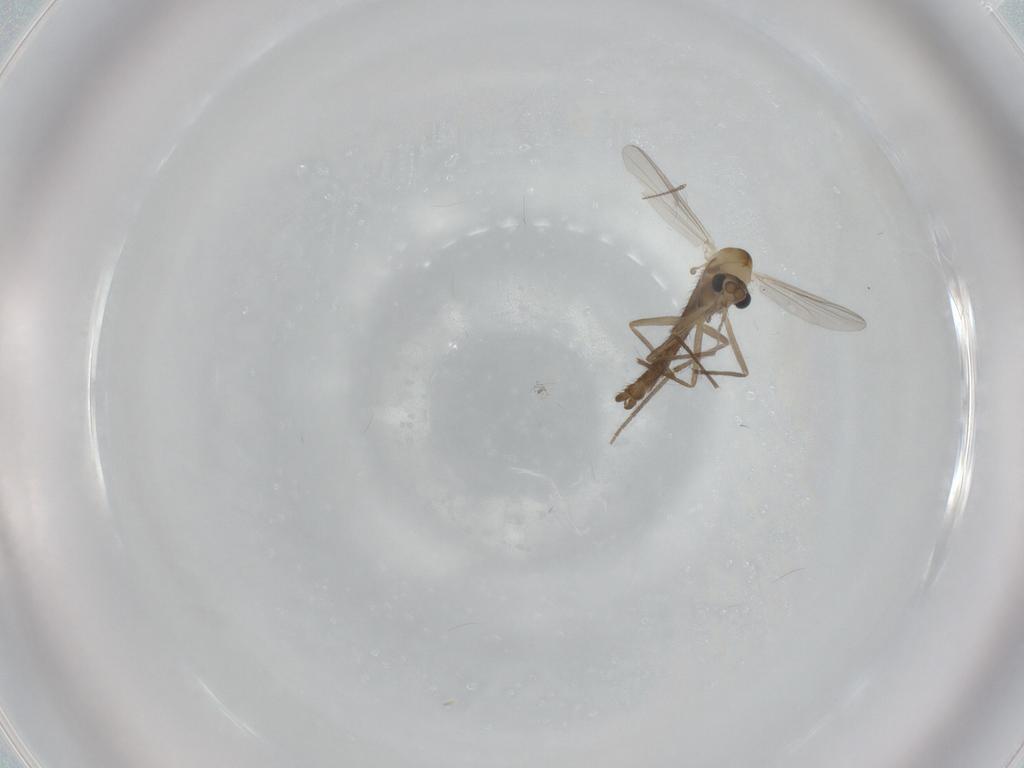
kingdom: Animalia
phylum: Arthropoda
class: Insecta
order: Diptera
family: Chironomidae
